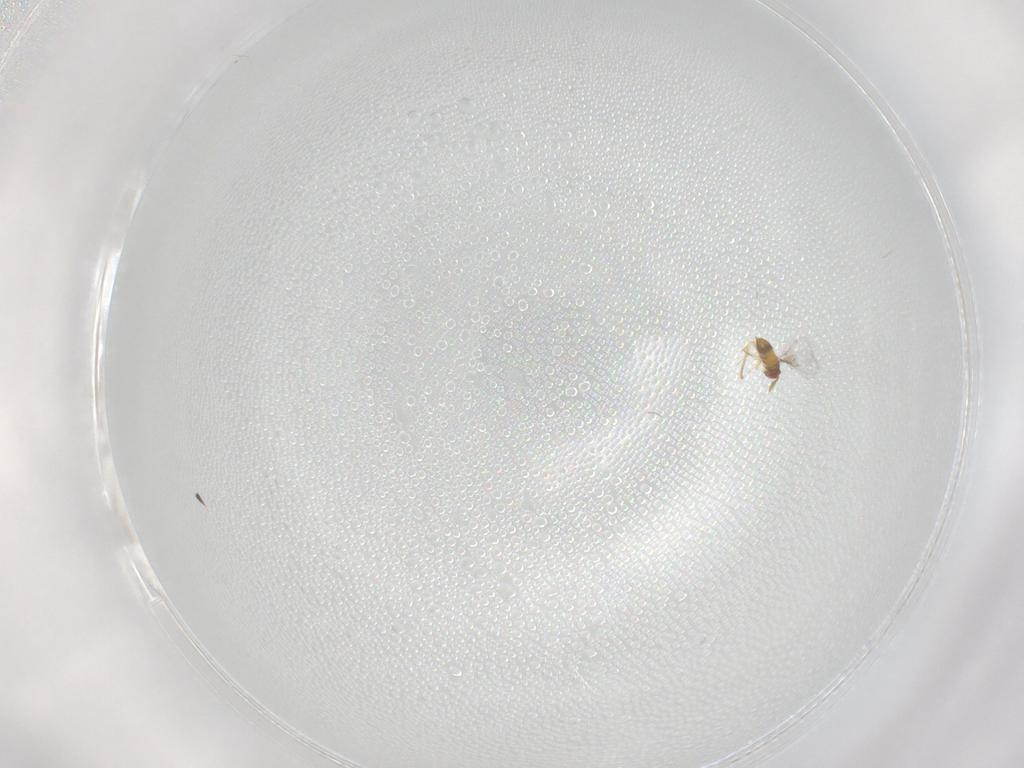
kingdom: Animalia
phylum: Arthropoda
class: Insecta
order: Hymenoptera
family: Trichogrammatidae
